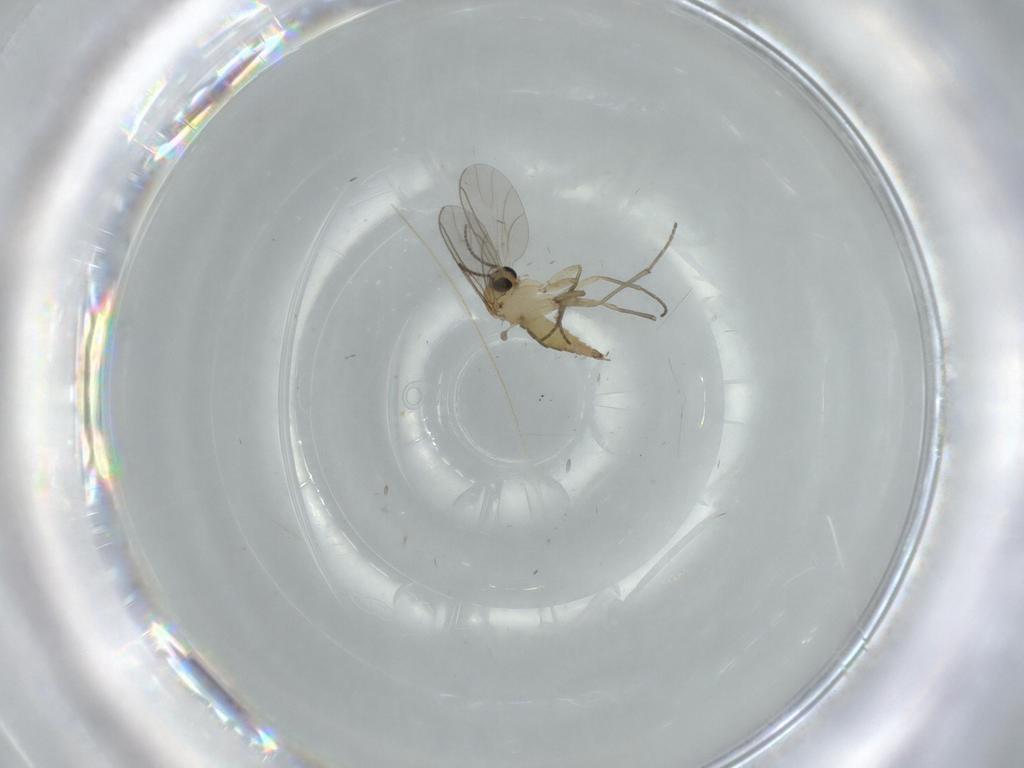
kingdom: Animalia
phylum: Arthropoda
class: Insecta
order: Diptera
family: Sciaridae
